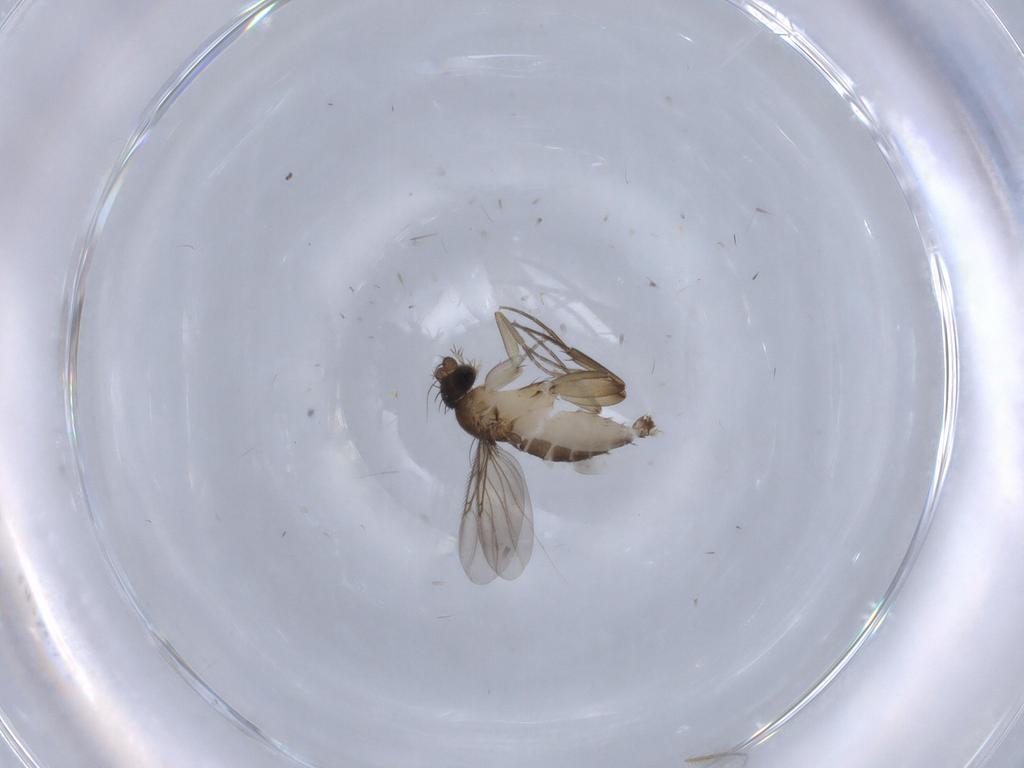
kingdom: Animalia
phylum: Arthropoda
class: Insecta
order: Diptera
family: Phoridae
